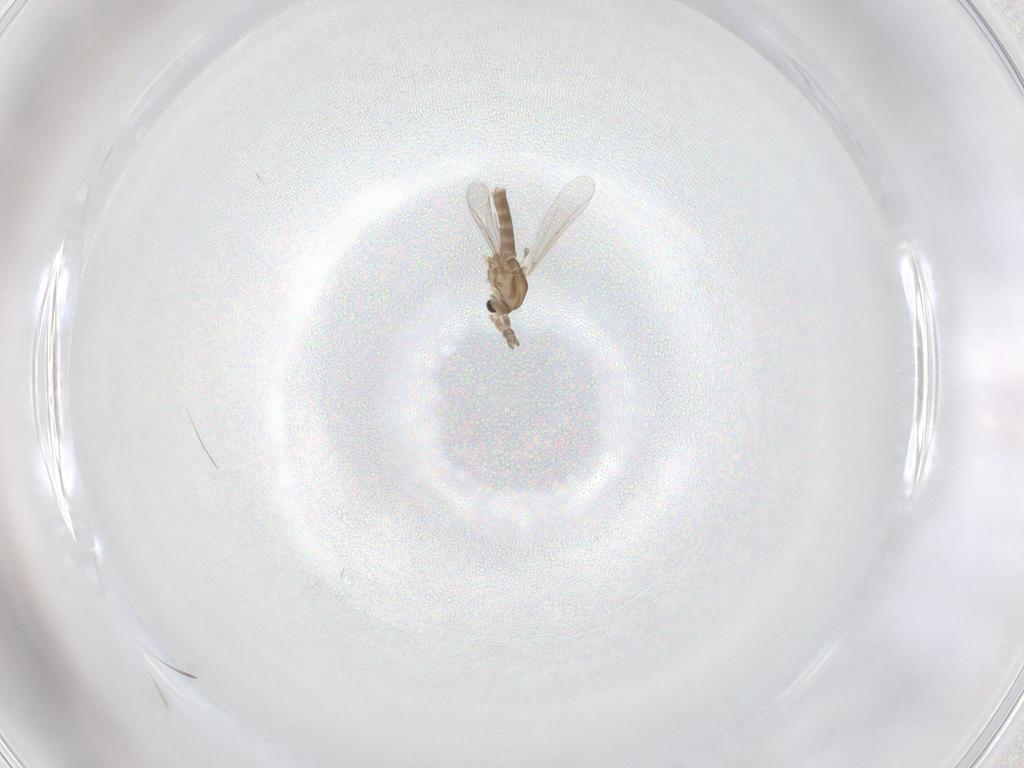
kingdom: Animalia
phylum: Arthropoda
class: Insecta
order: Diptera
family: Chironomidae
